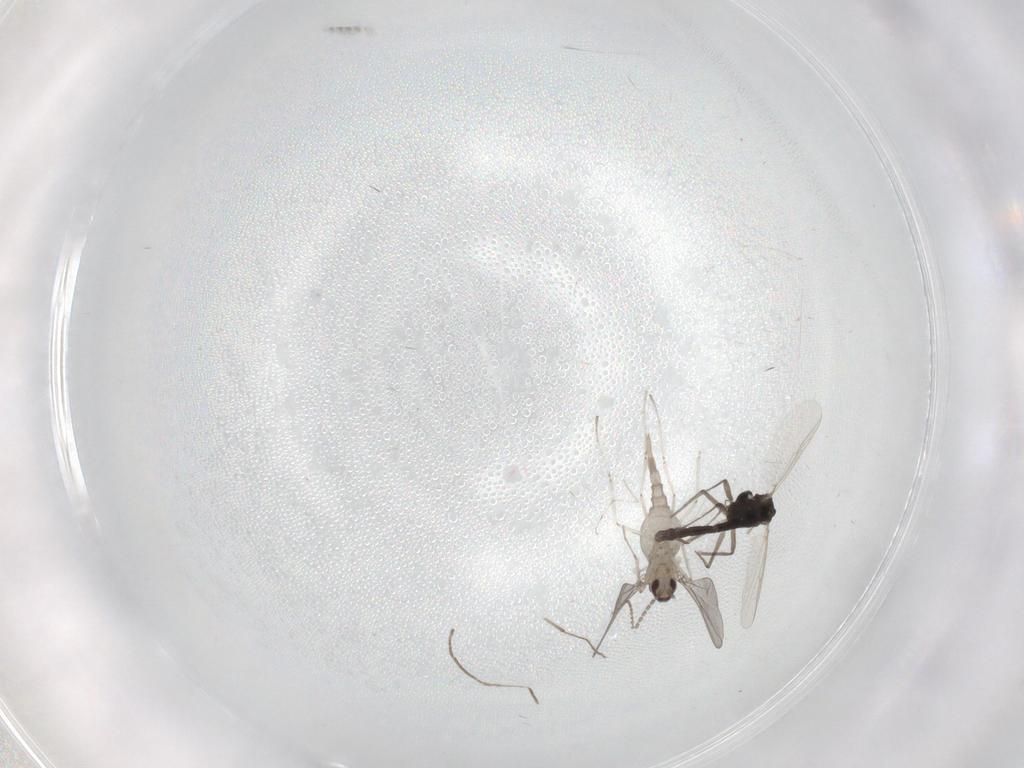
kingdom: Animalia
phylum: Arthropoda
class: Insecta
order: Diptera
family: Chironomidae
